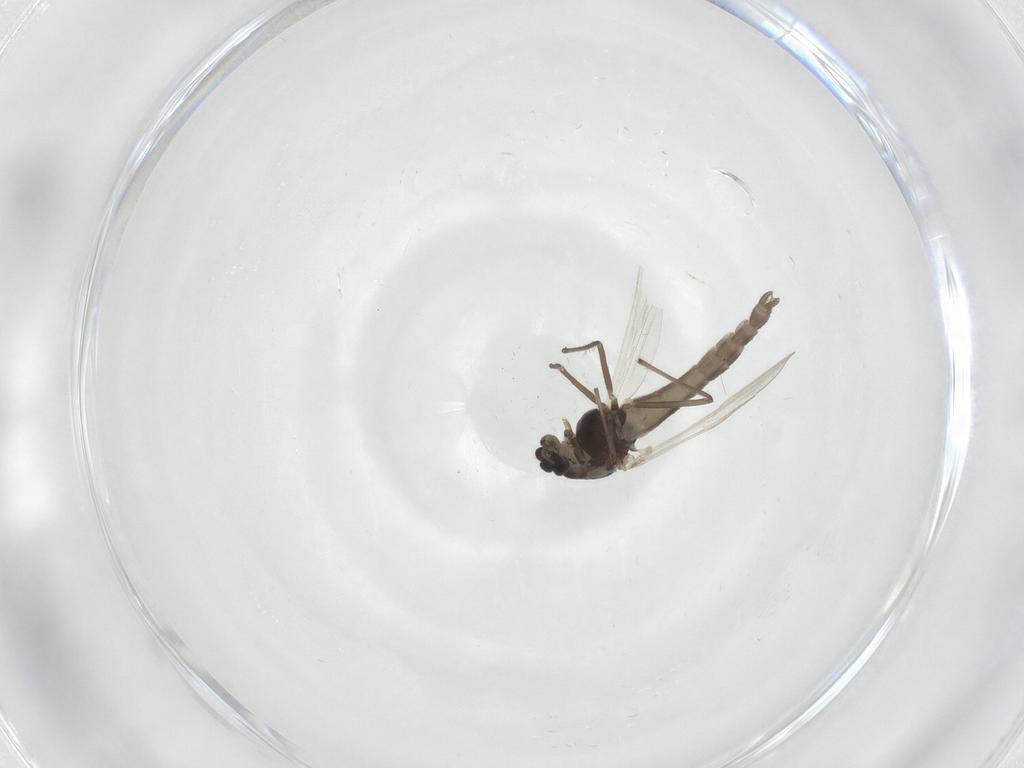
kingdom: Animalia
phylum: Arthropoda
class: Insecta
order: Diptera
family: Chironomidae
